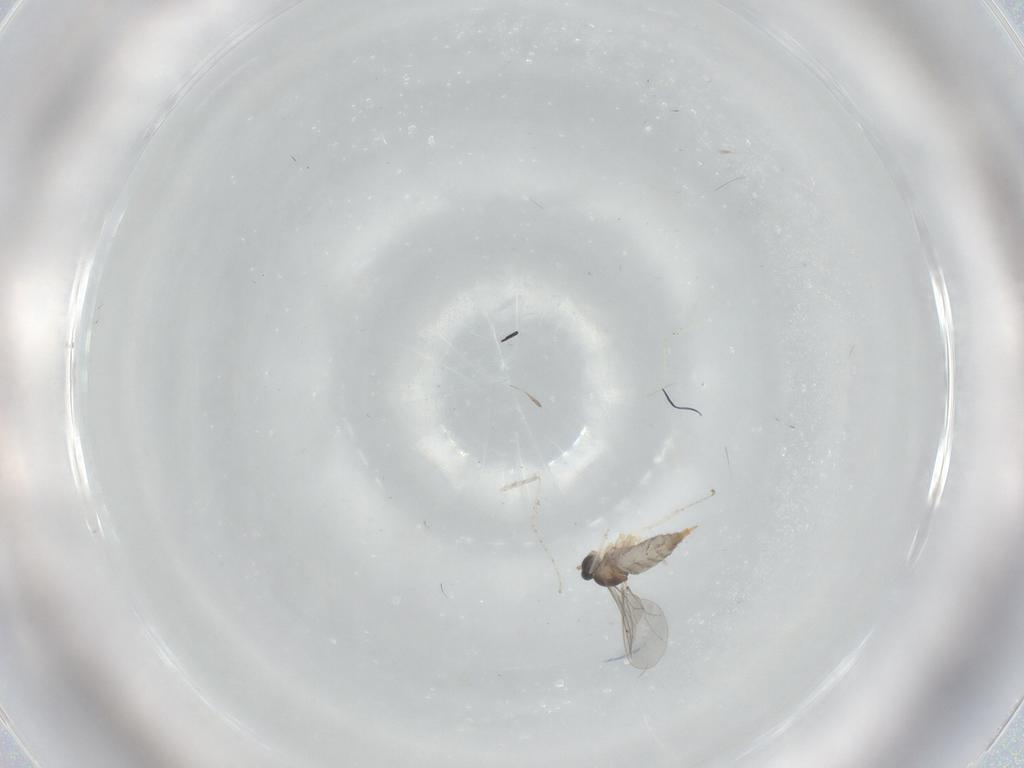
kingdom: Animalia
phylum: Arthropoda
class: Insecta
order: Diptera
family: Cecidomyiidae
